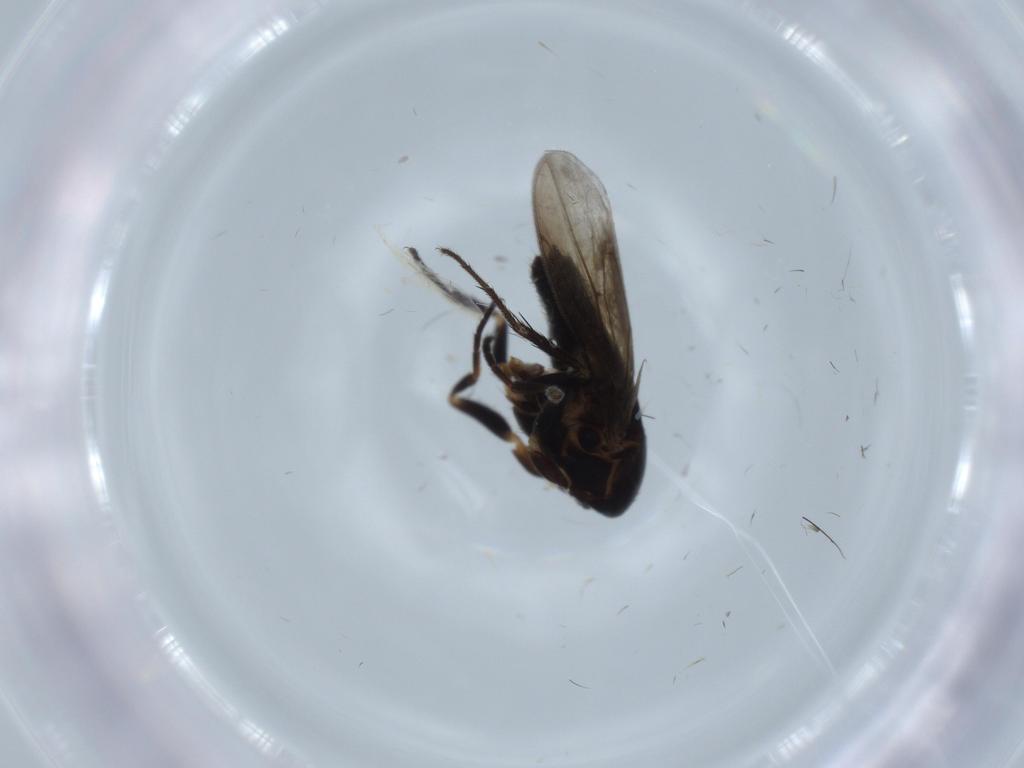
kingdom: Animalia
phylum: Arthropoda
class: Insecta
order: Diptera
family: Sphaeroceridae
